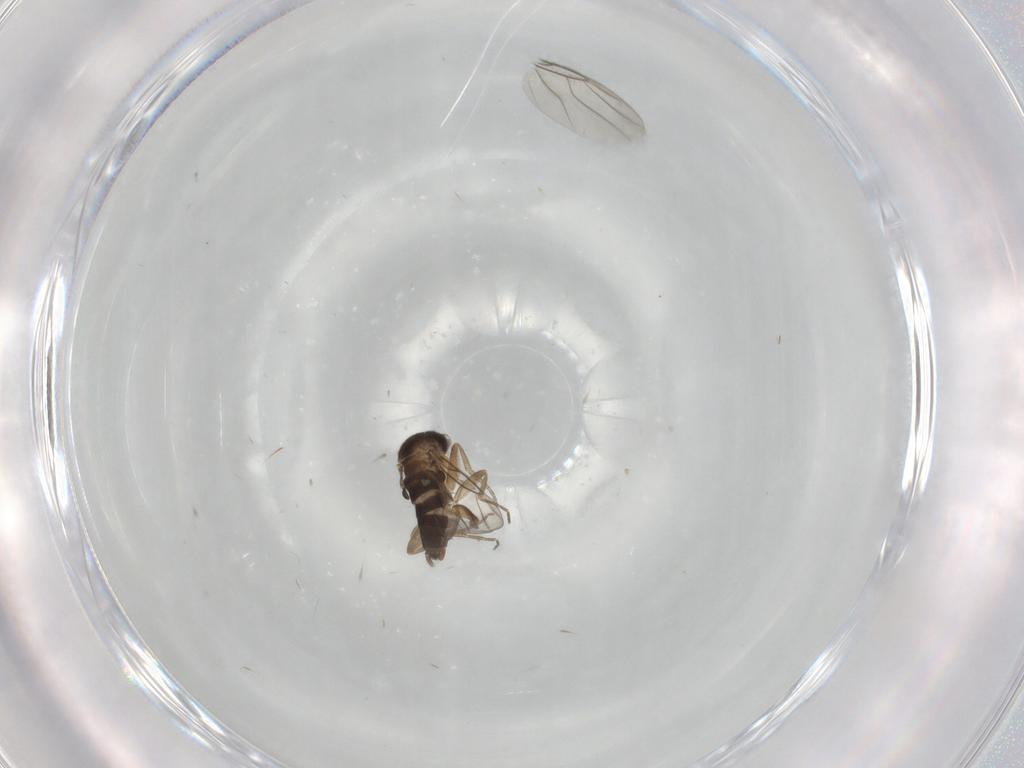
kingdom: Animalia
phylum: Arthropoda
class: Insecta
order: Diptera
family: Phoridae
